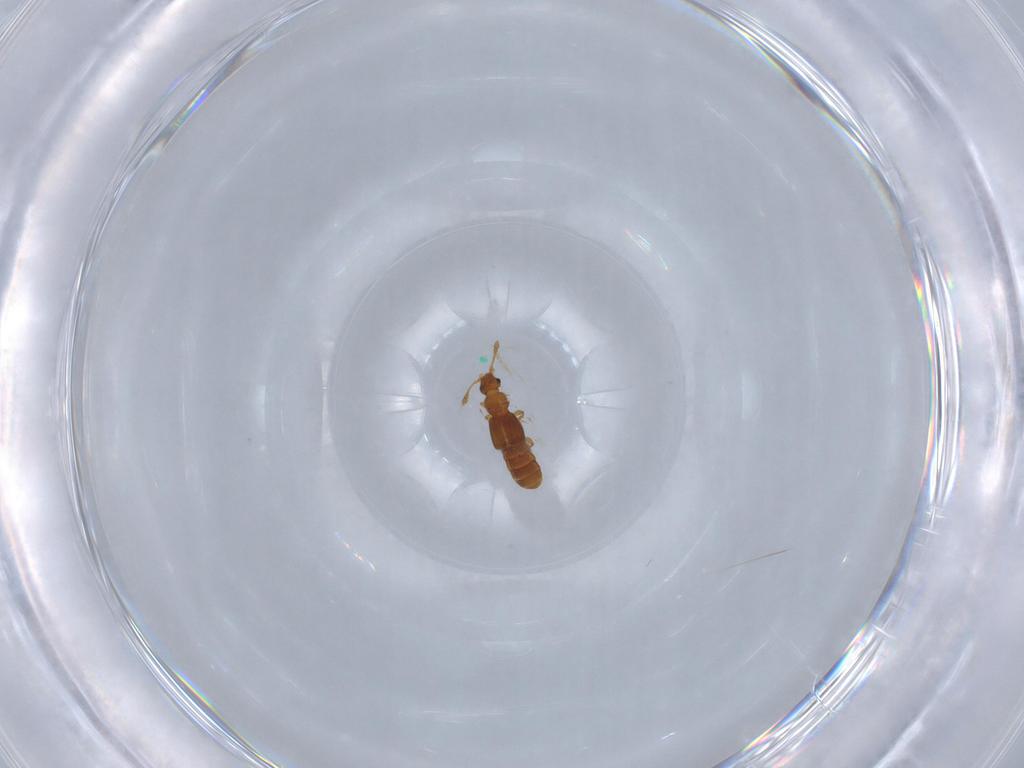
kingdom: Animalia
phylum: Arthropoda
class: Insecta
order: Coleoptera
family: Staphylinidae
